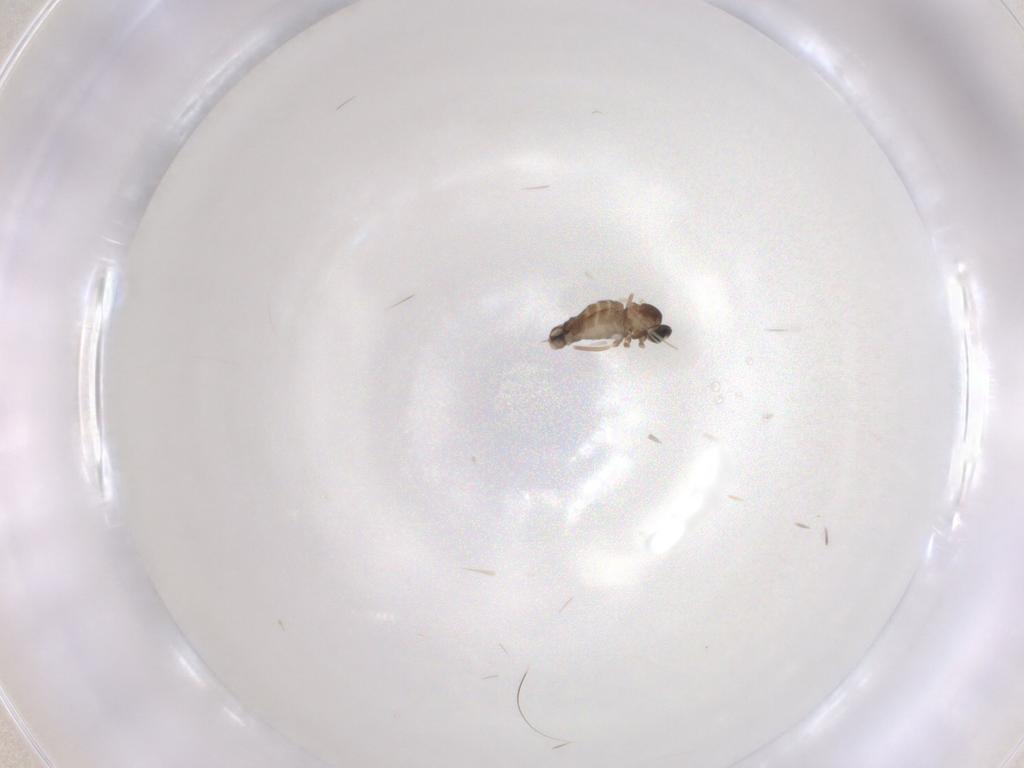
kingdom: Animalia
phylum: Arthropoda
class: Insecta
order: Diptera
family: Cecidomyiidae
